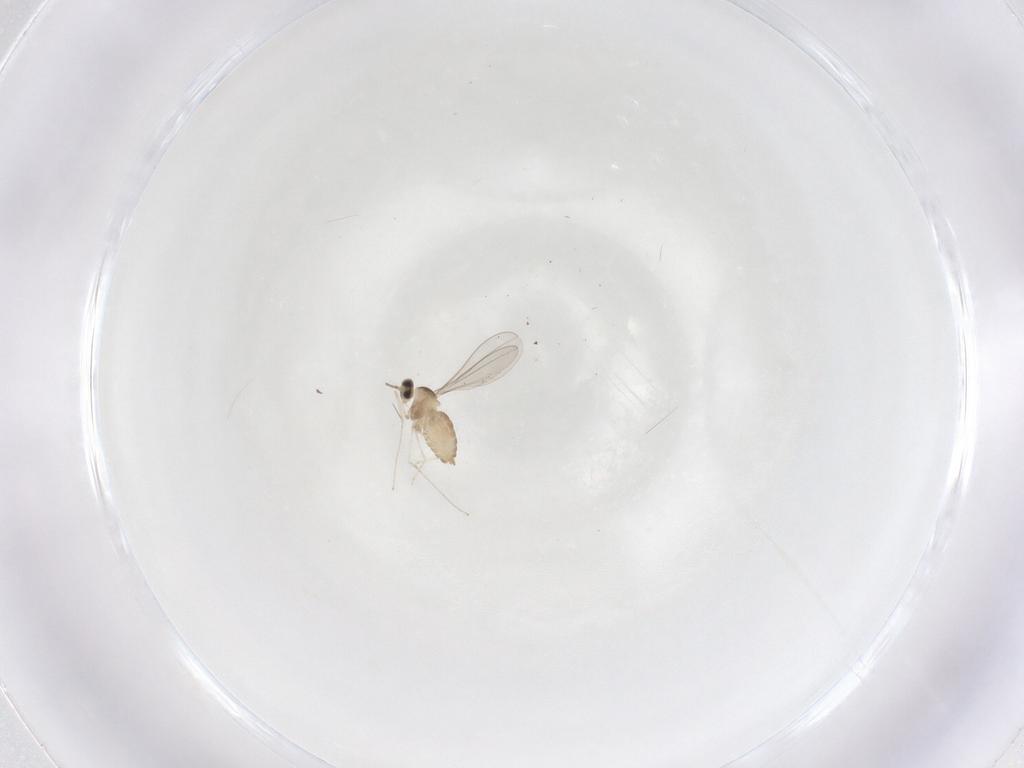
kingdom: Animalia
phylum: Arthropoda
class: Insecta
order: Diptera
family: Cecidomyiidae
